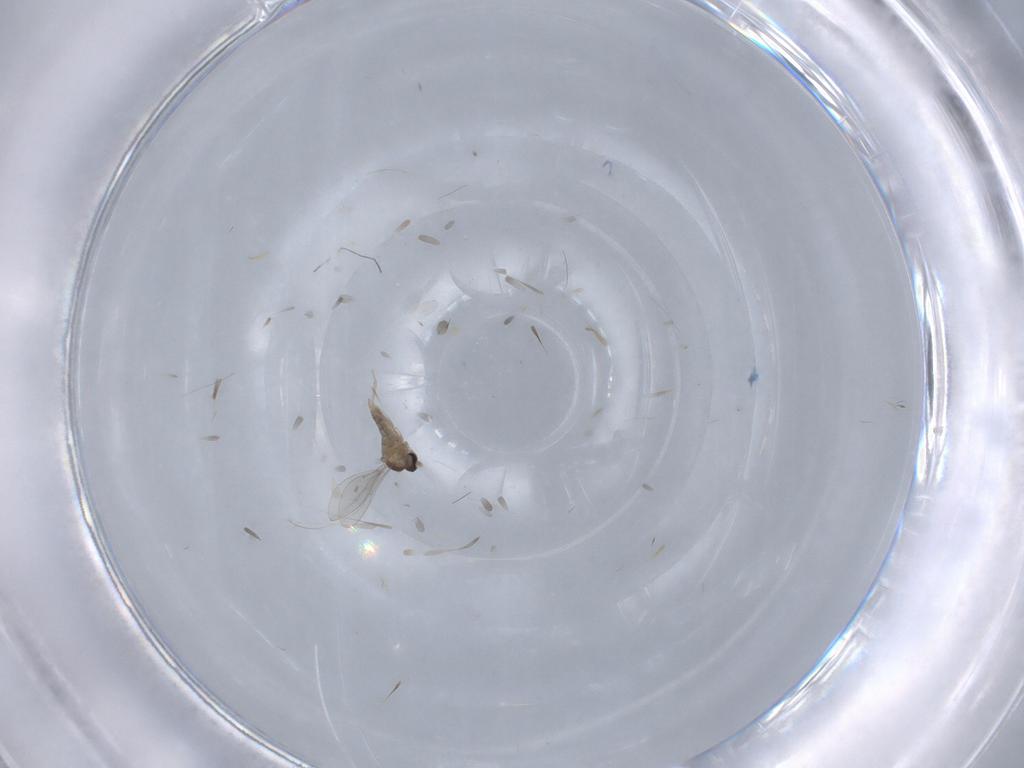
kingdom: Animalia
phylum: Arthropoda
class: Insecta
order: Diptera
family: Cecidomyiidae
